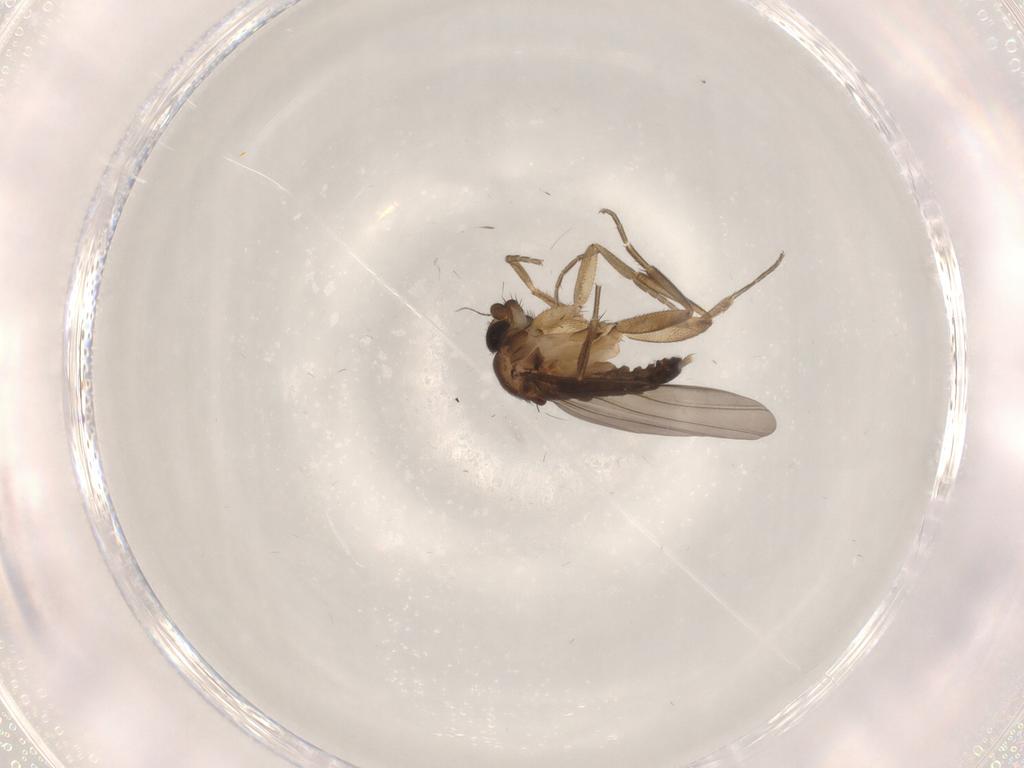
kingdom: Animalia
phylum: Arthropoda
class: Insecta
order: Diptera
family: Phoridae
